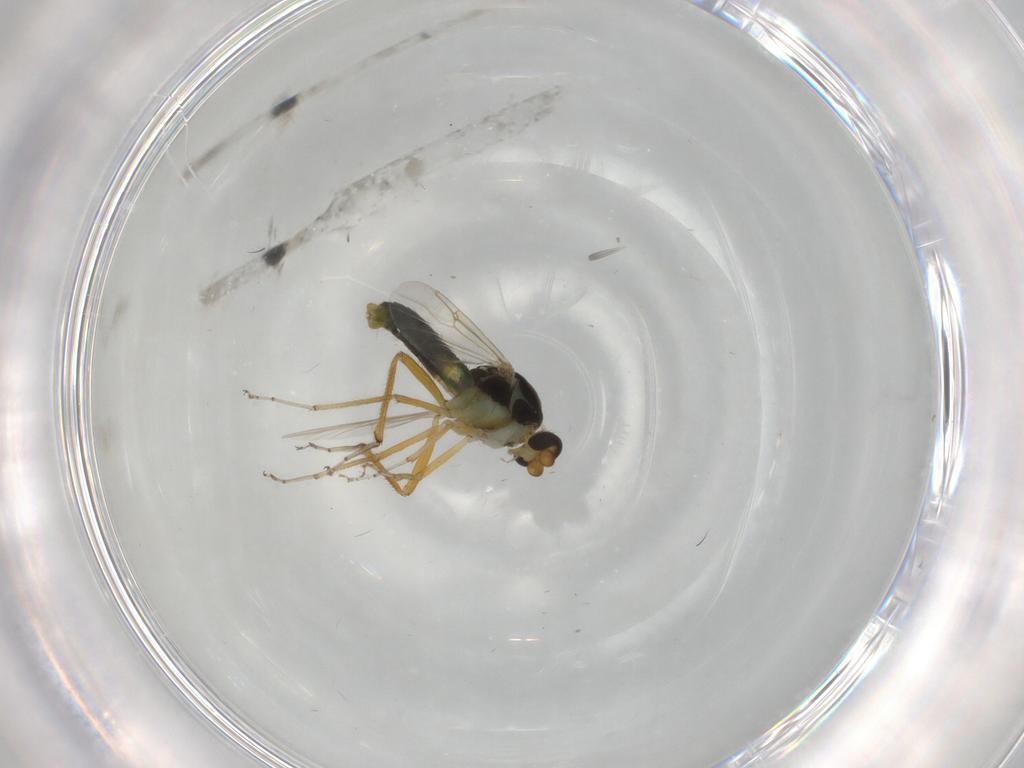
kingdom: Animalia
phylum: Arthropoda
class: Insecta
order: Diptera
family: Ceratopogonidae
